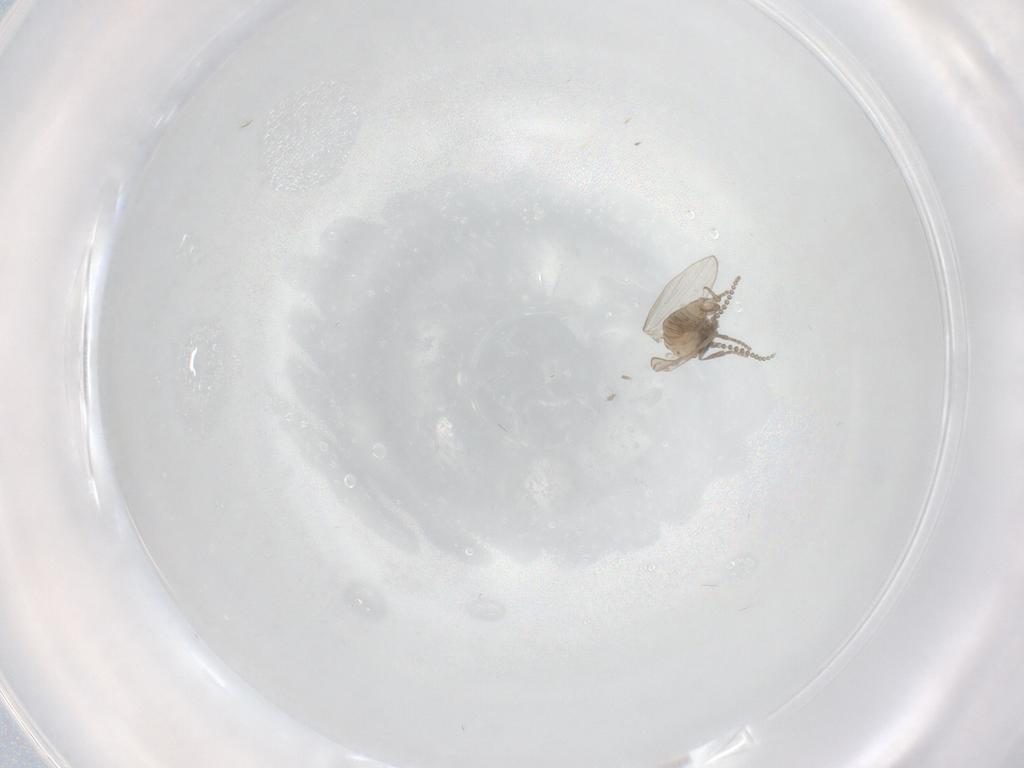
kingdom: Animalia
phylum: Arthropoda
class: Insecta
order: Diptera
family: Psychodidae
